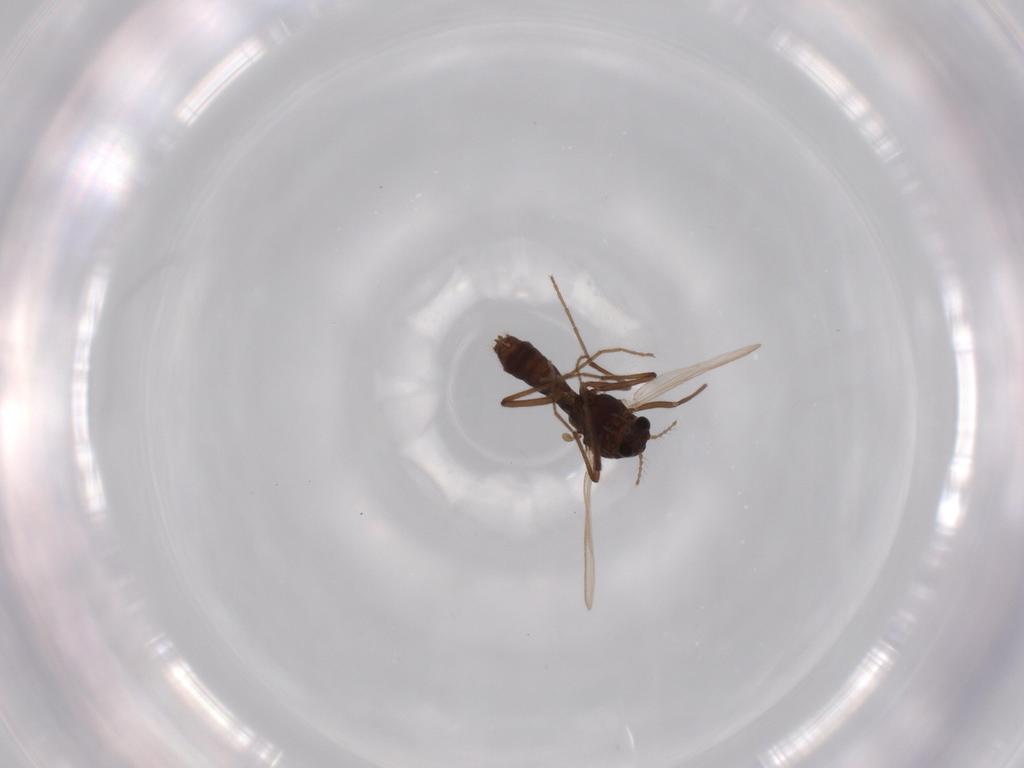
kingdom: Animalia
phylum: Arthropoda
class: Insecta
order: Diptera
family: Chironomidae
